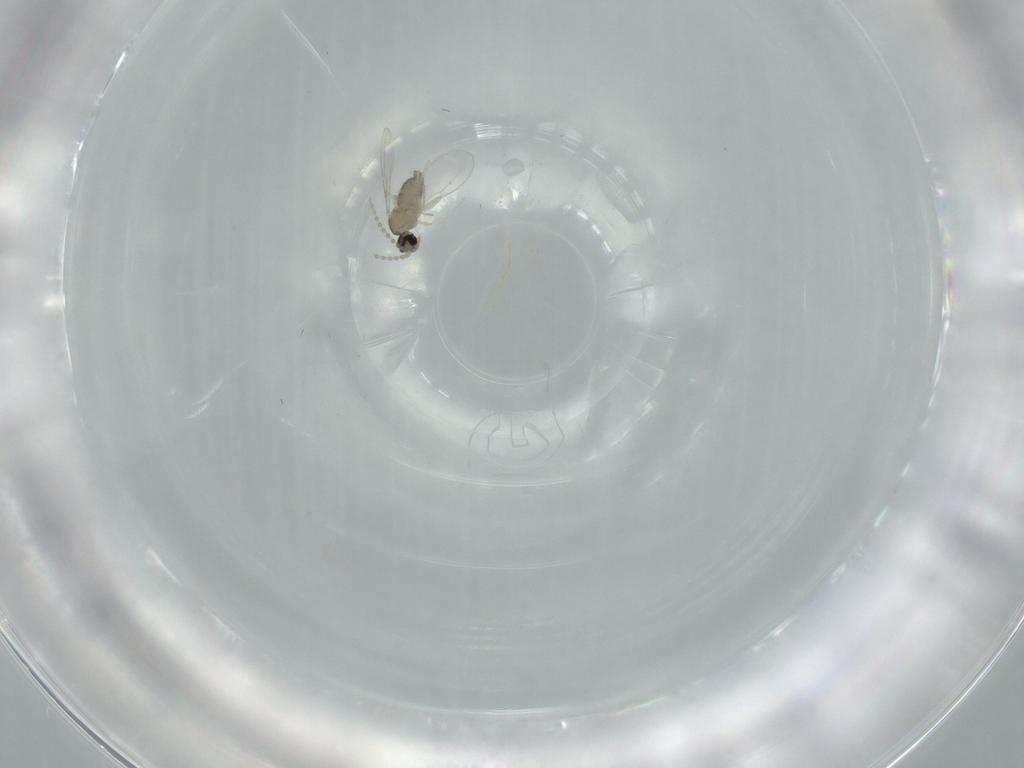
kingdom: Animalia
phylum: Arthropoda
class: Insecta
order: Diptera
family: Cecidomyiidae
